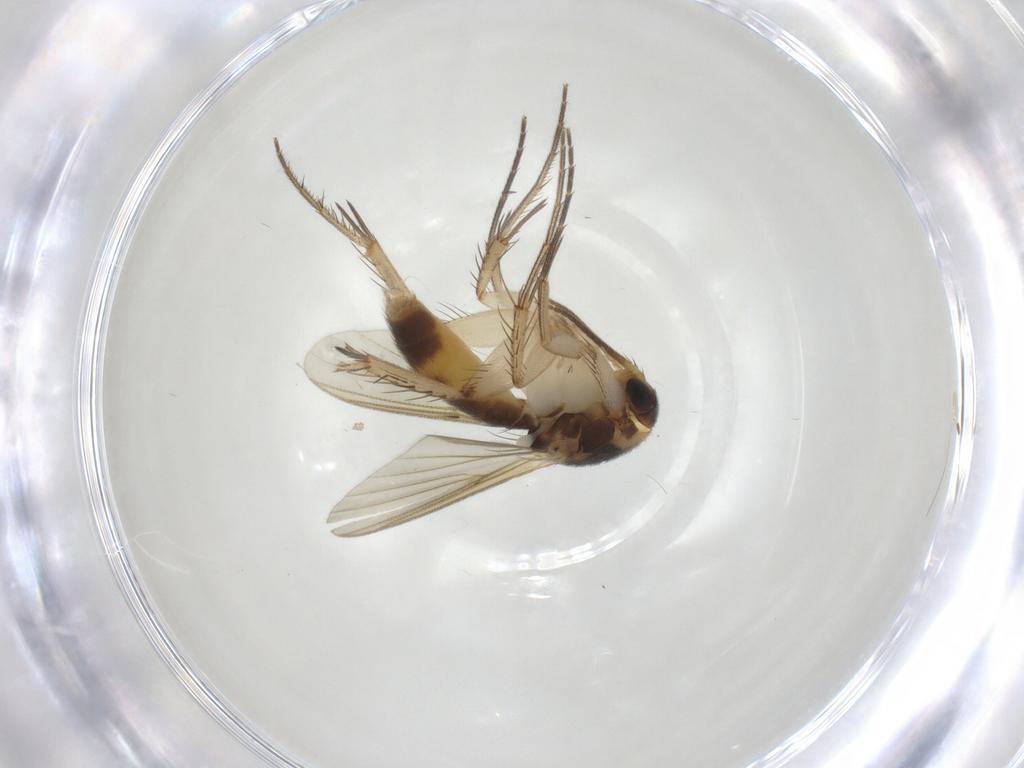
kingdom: Animalia
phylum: Arthropoda
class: Insecta
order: Diptera
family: Mycetophilidae
